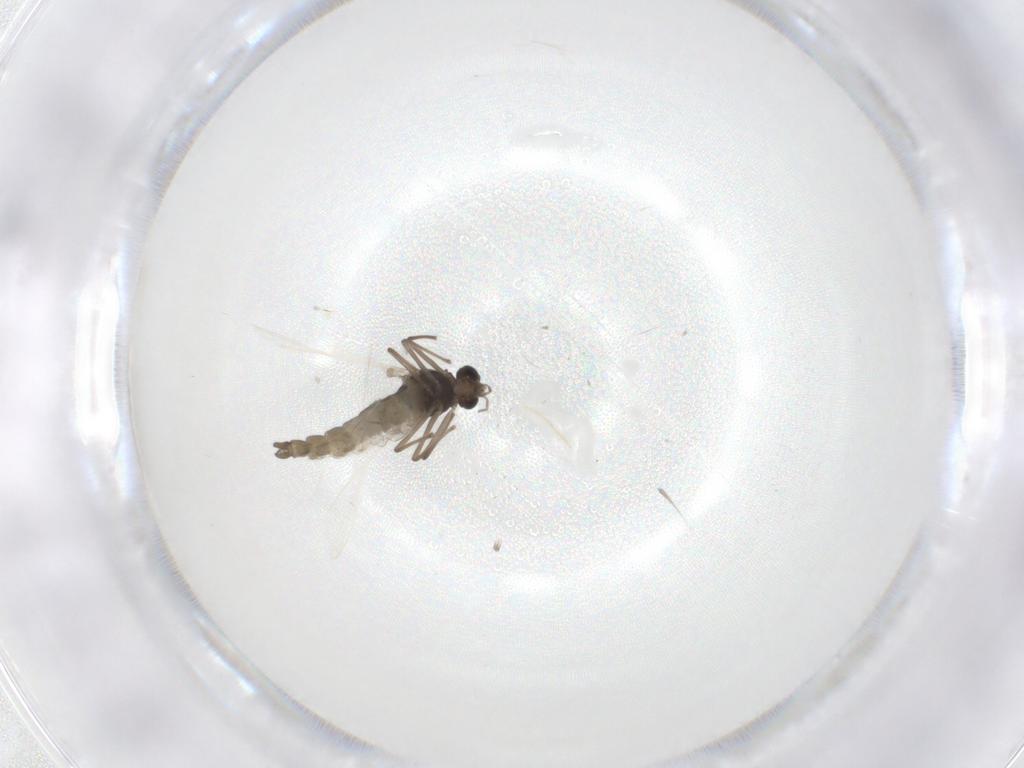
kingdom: Animalia
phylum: Arthropoda
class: Insecta
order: Diptera
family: Chironomidae
